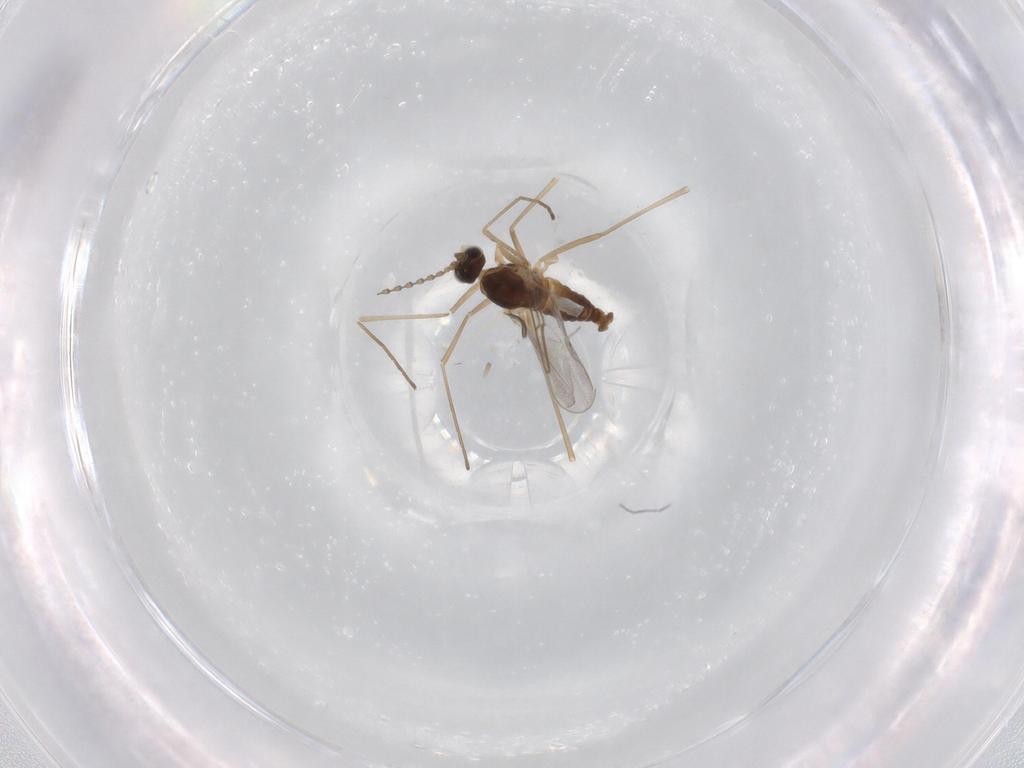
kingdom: Animalia
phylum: Arthropoda
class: Insecta
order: Diptera
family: Cecidomyiidae
